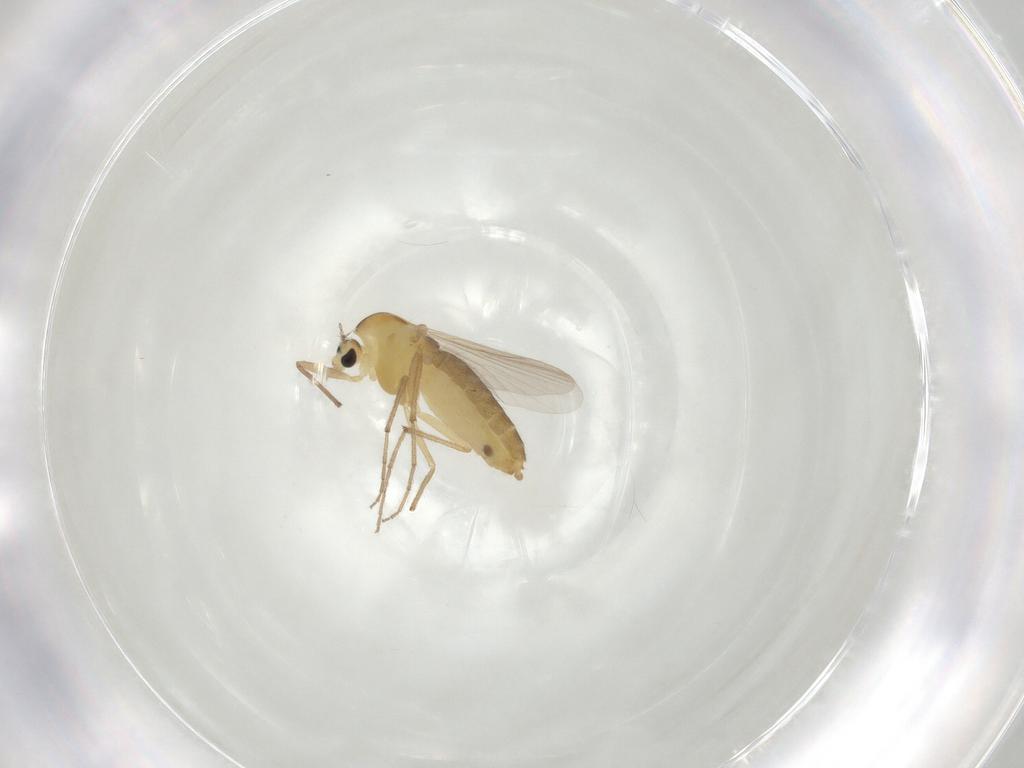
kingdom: Animalia
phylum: Arthropoda
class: Insecta
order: Diptera
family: Chironomidae
